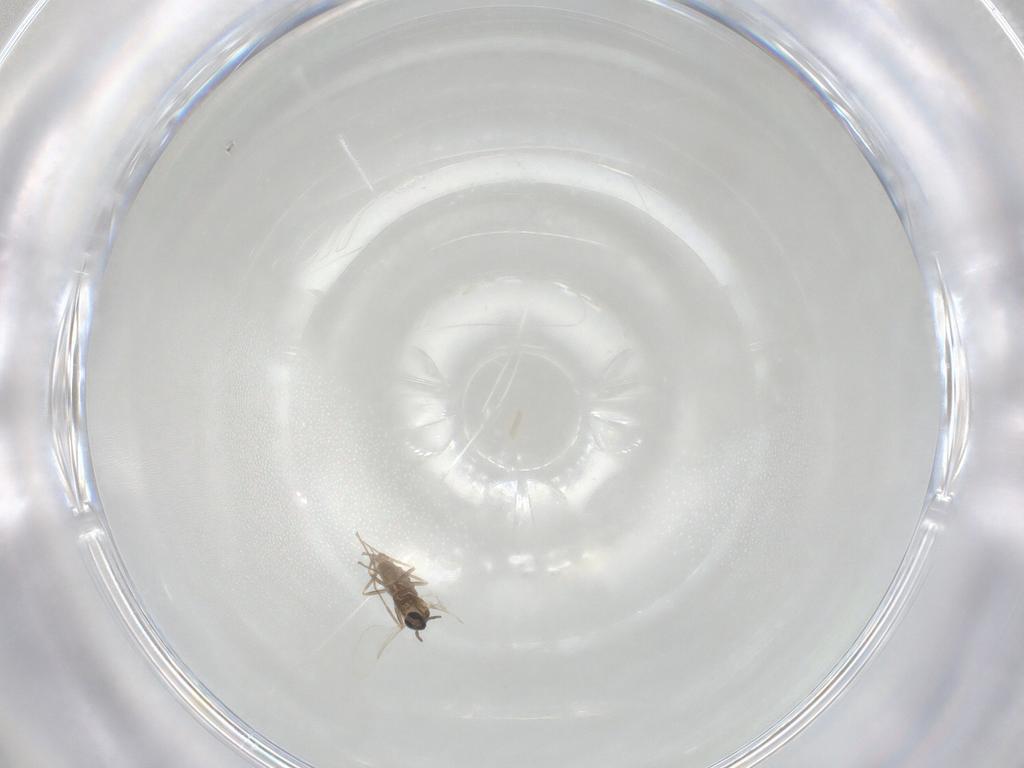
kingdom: Animalia
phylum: Arthropoda
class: Insecta
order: Diptera
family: Cecidomyiidae
